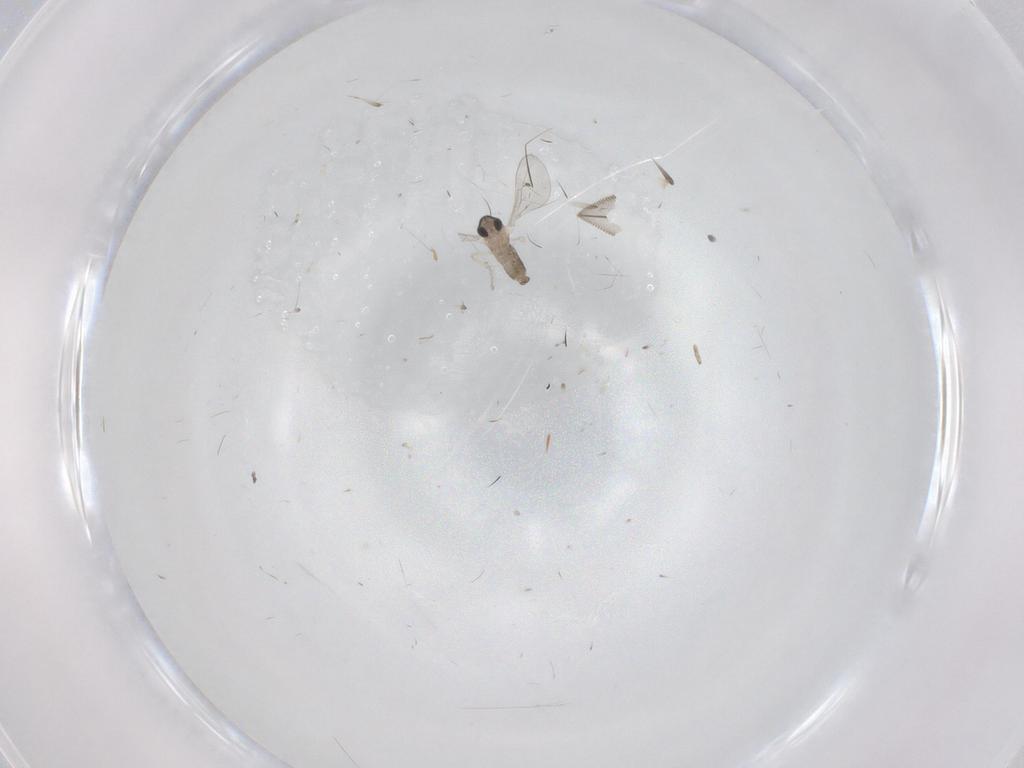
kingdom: Animalia
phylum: Arthropoda
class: Insecta
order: Diptera
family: Cecidomyiidae
